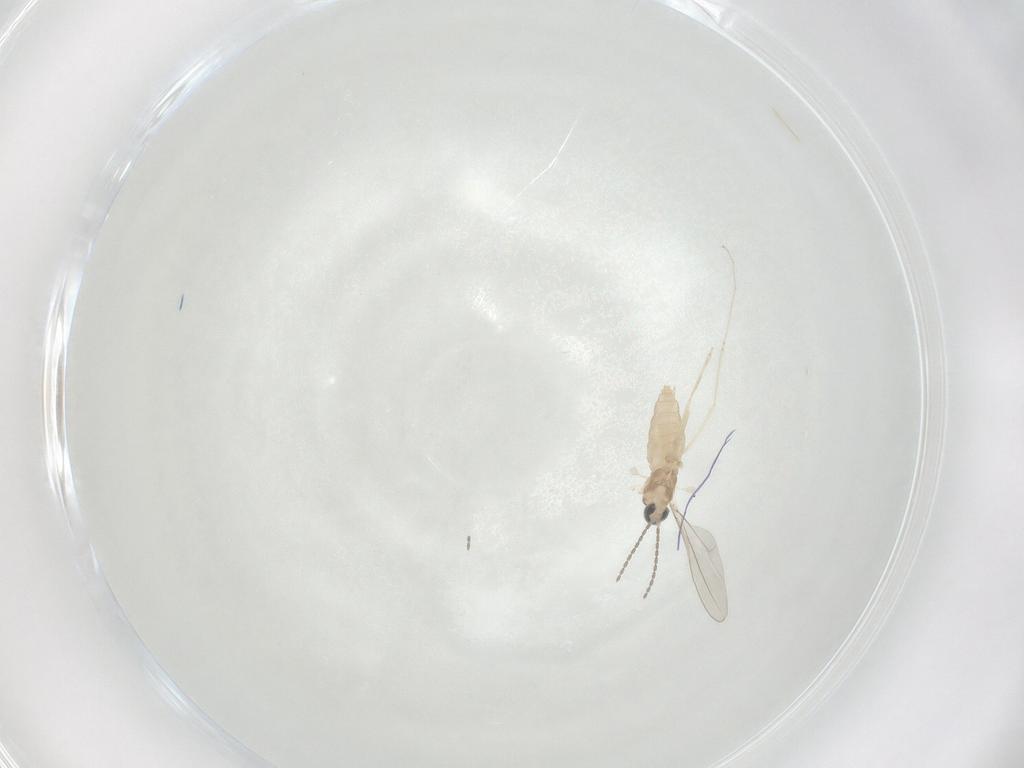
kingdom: Animalia
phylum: Arthropoda
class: Insecta
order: Diptera
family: Cecidomyiidae
